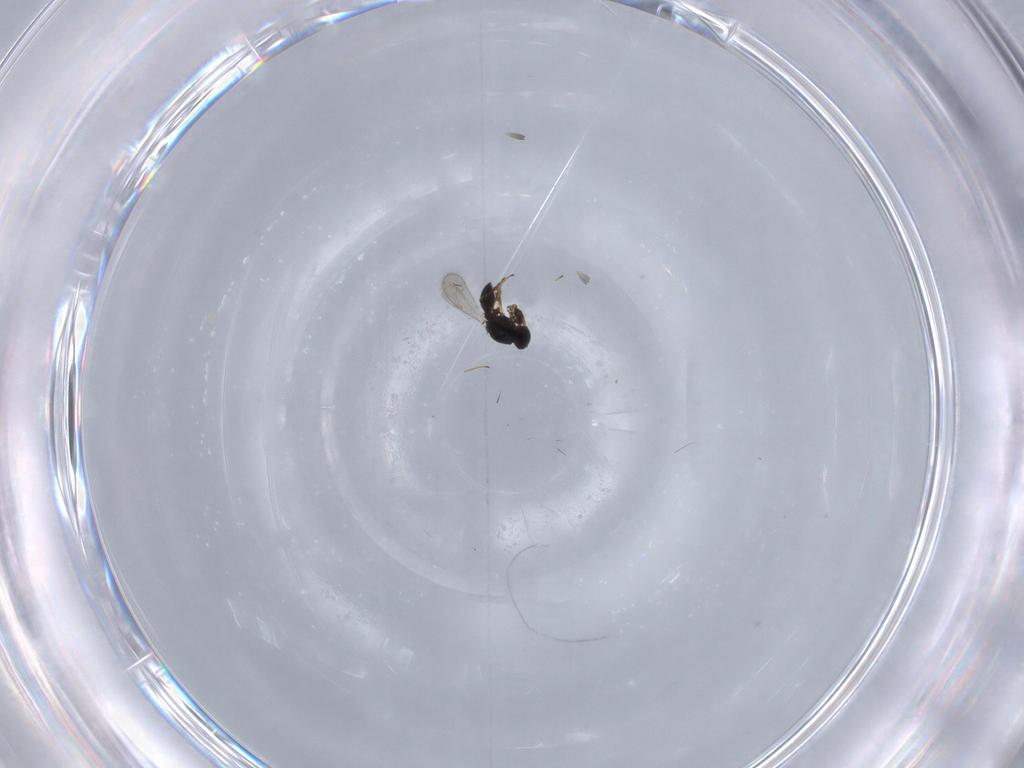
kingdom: Animalia
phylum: Arthropoda
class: Insecta
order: Hymenoptera
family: Platygastridae
